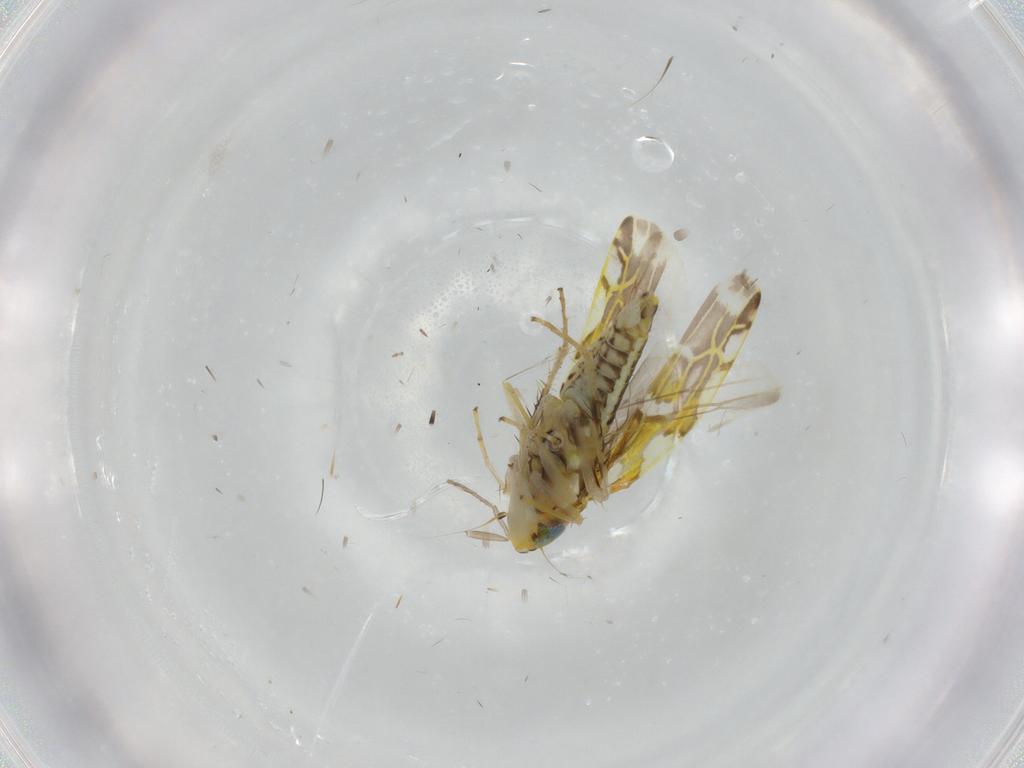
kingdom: Animalia
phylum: Arthropoda
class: Insecta
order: Hemiptera
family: Cicadellidae
